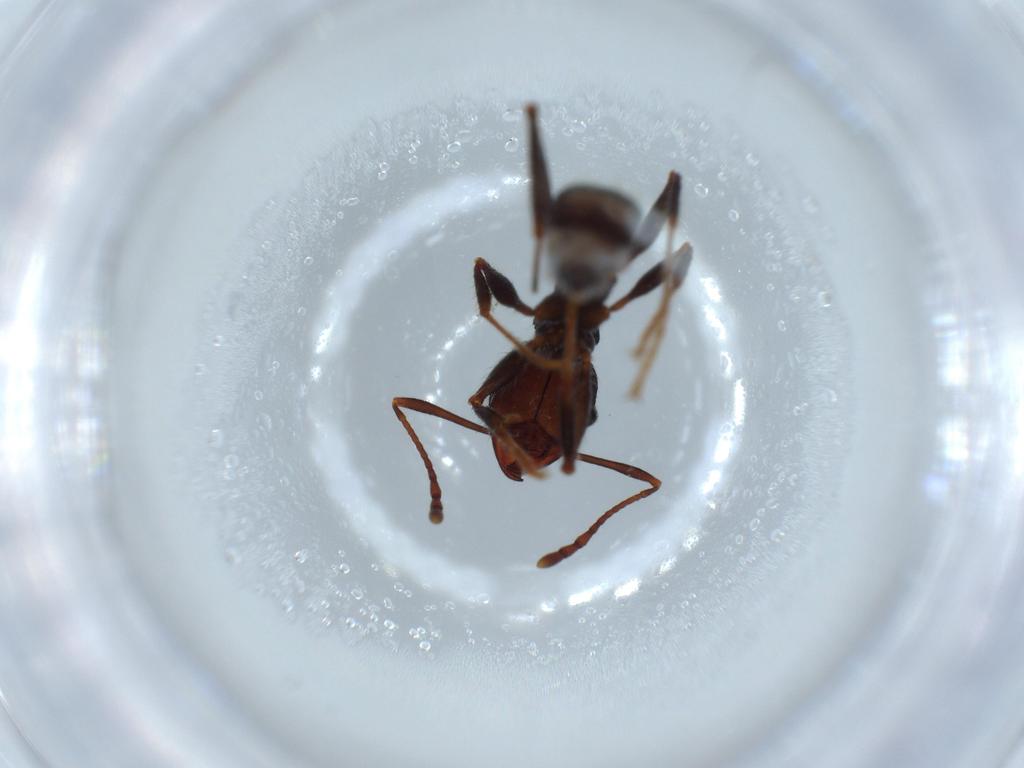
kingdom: Animalia
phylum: Arthropoda
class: Insecta
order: Hymenoptera
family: Formicidae
